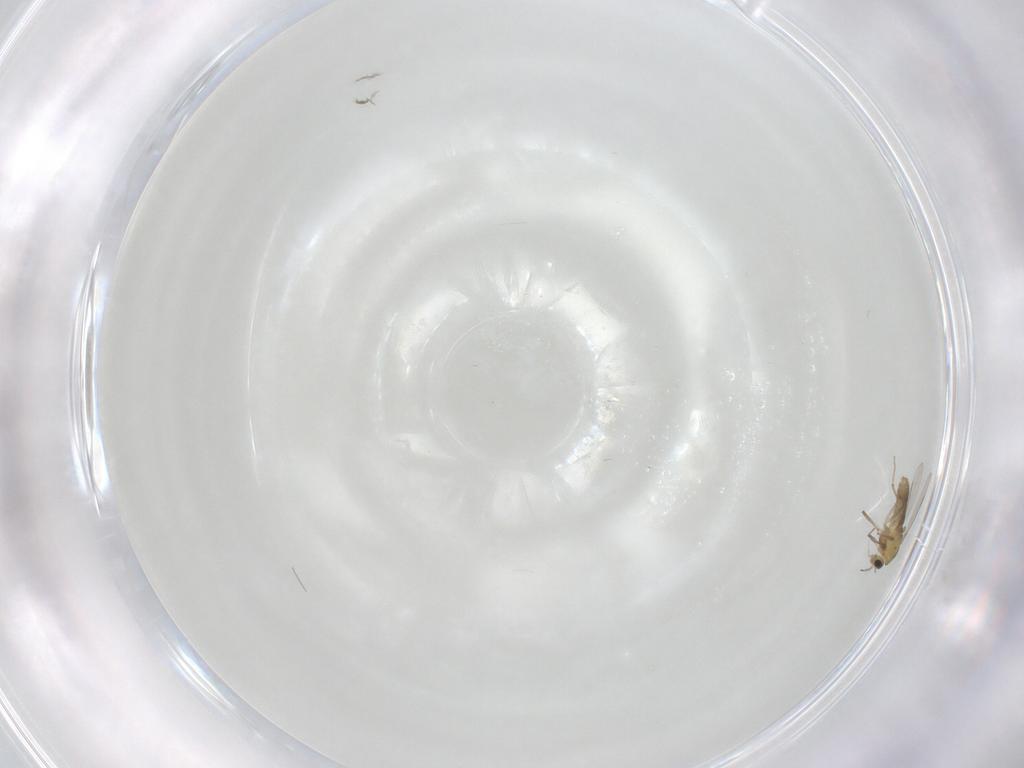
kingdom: Animalia
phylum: Arthropoda
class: Insecta
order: Diptera
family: Chironomidae
